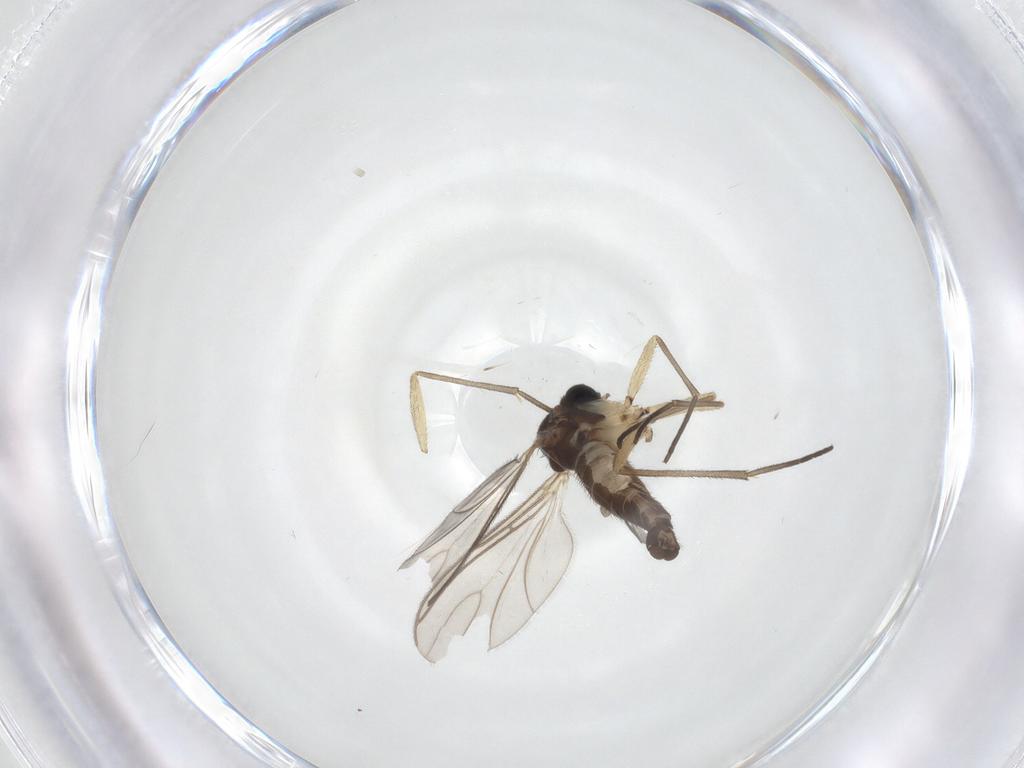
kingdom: Animalia
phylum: Arthropoda
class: Insecta
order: Diptera
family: Sciaridae
